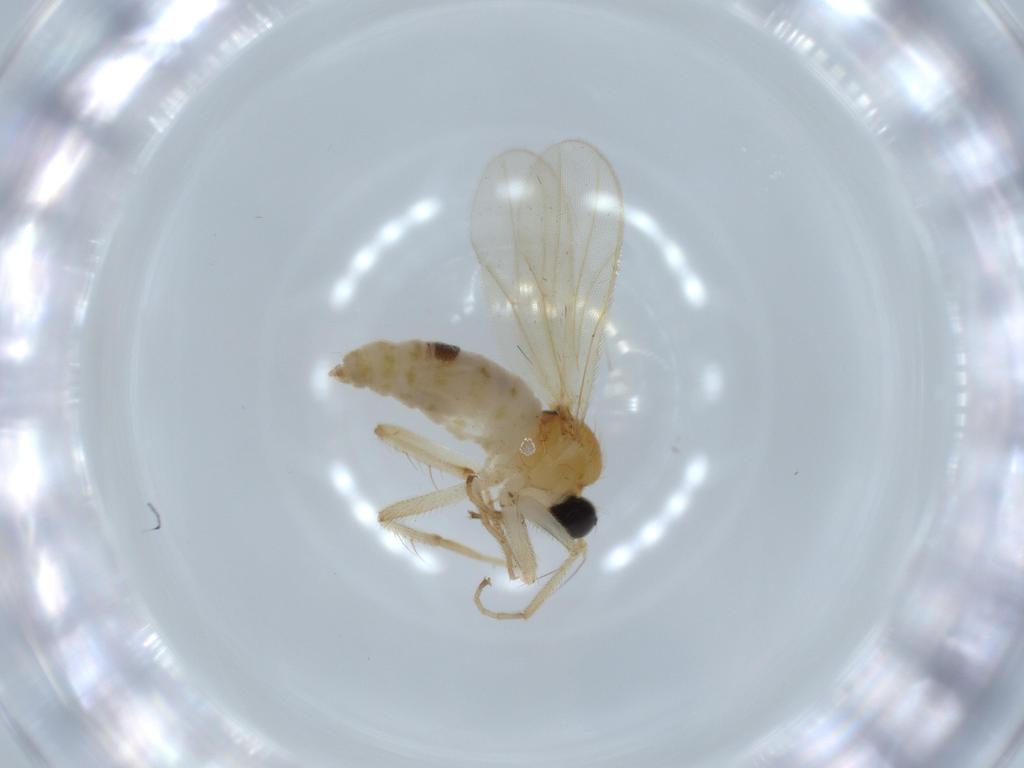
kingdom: Animalia
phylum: Arthropoda
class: Insecta
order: Diptera
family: Hybotidae
